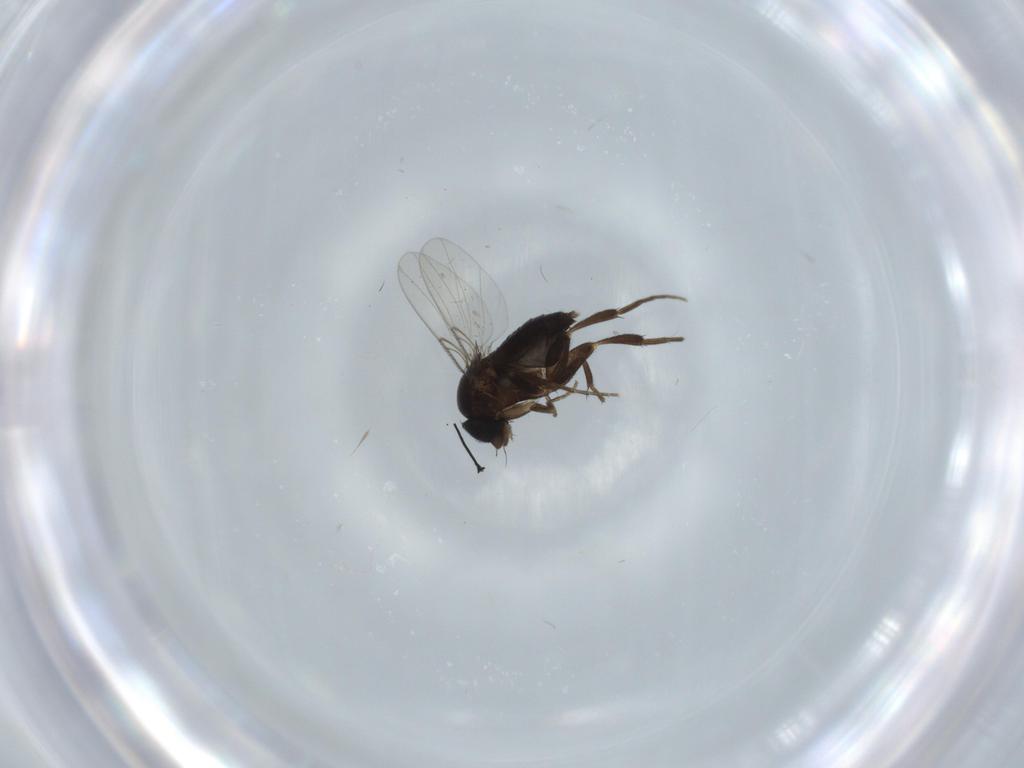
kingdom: Animalia
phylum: Arthropoda
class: Insecta
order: Diptera
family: Phoridae
